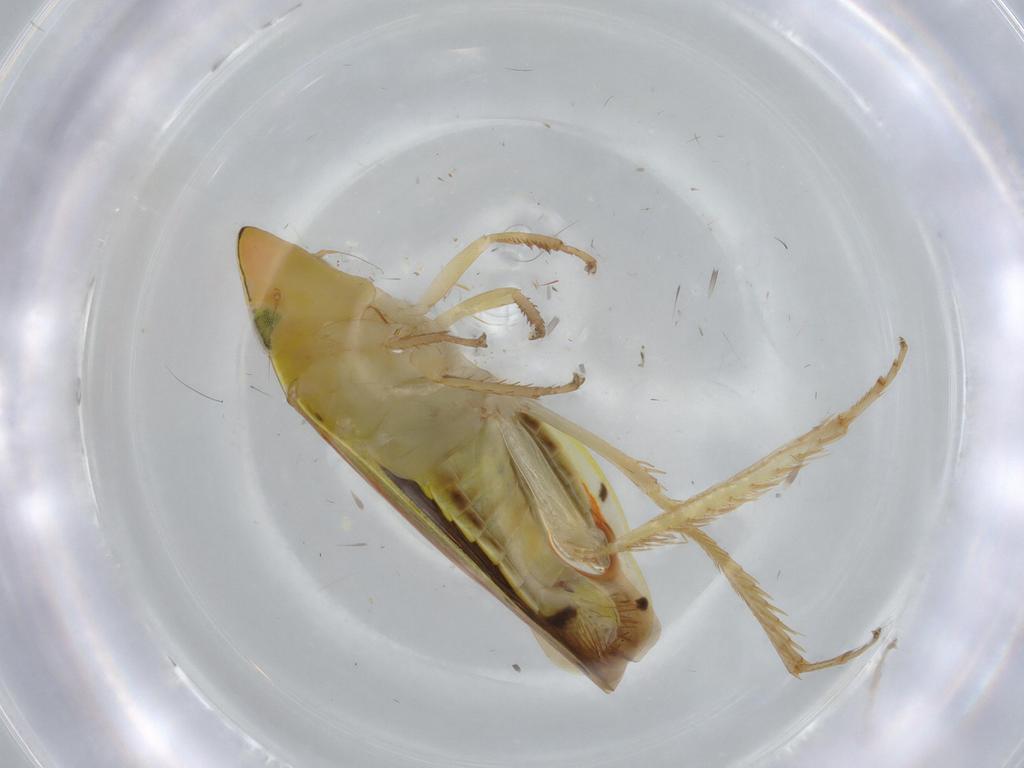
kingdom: Animalia
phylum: Arthropoda
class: Insecta
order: Hemiptera
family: Cicadellidae
